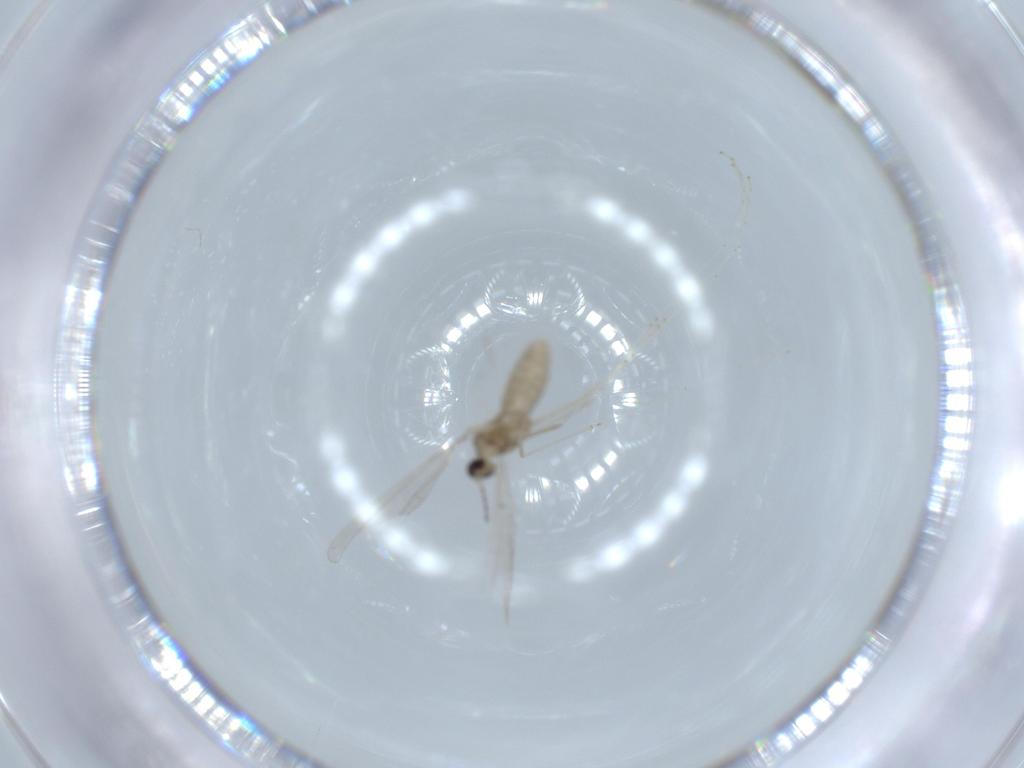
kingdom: Animalia
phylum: Arthropoda
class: Insecta
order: Diptera
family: Cecidomyiidae
